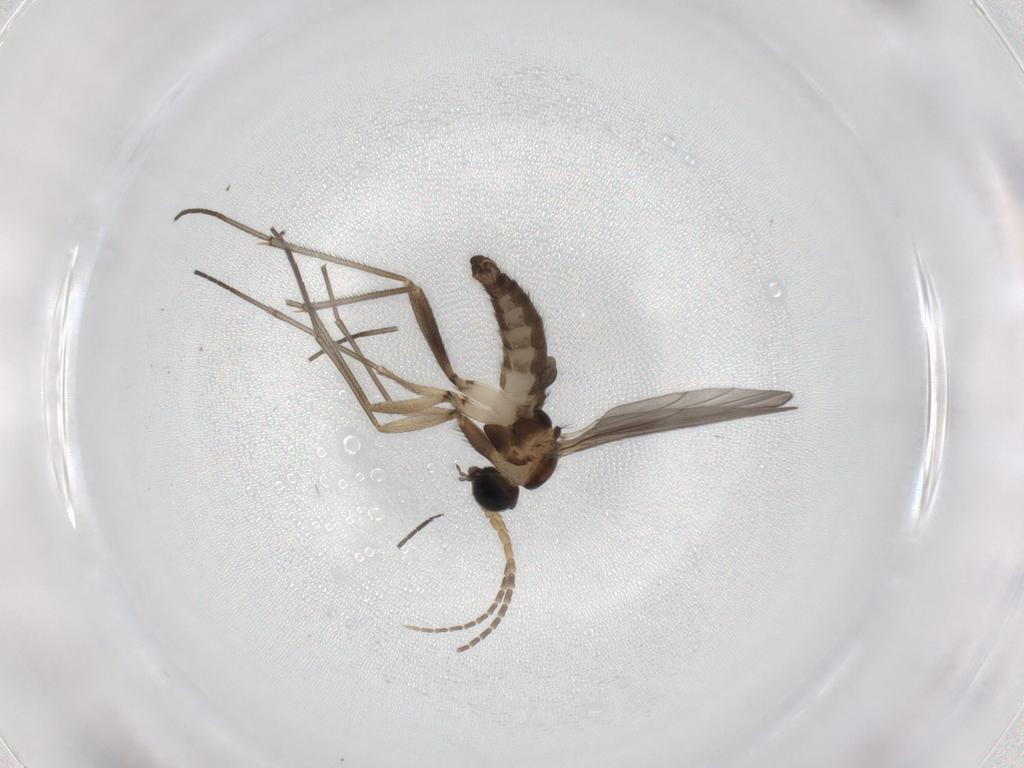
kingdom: Animalia
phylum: Arthropoda
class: Insecta
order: Diptera
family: Sciaridae
